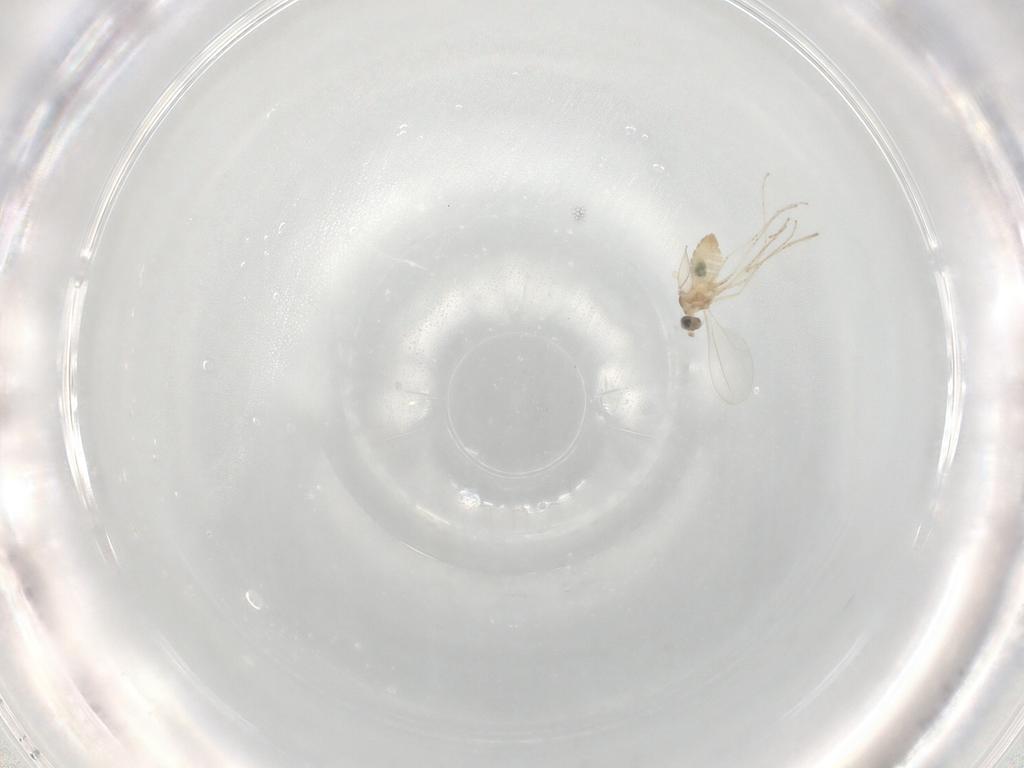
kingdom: Animalia
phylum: Arthropoda
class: Insecta
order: Diptera
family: Cecidomyiidae
